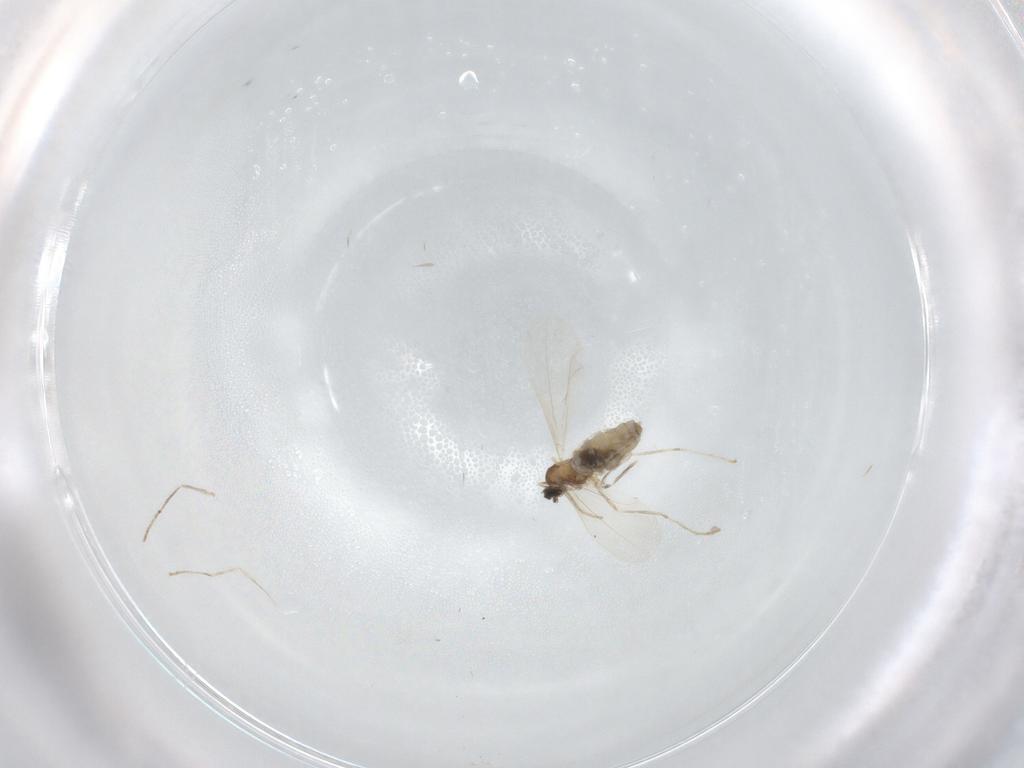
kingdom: Animalia
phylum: Arthropoda
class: Insecta
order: Diptera
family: Cecidomyiidae
